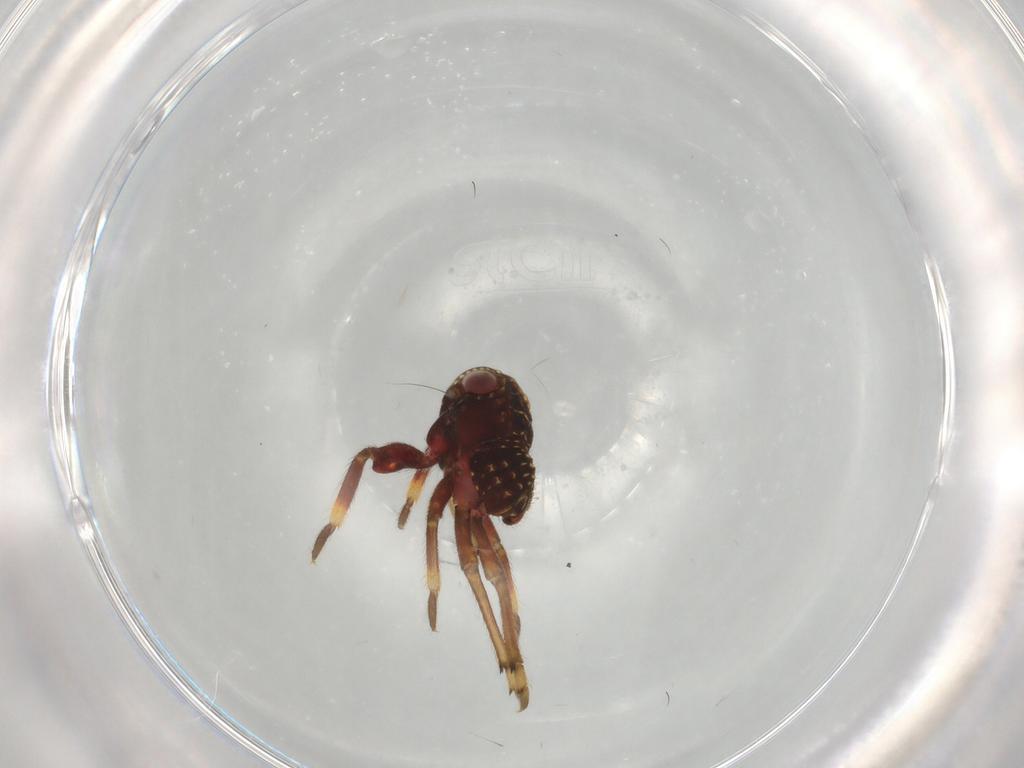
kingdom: Animalia
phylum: Arthropoda
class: Insecta
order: Hemiptera
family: Cixiidae
